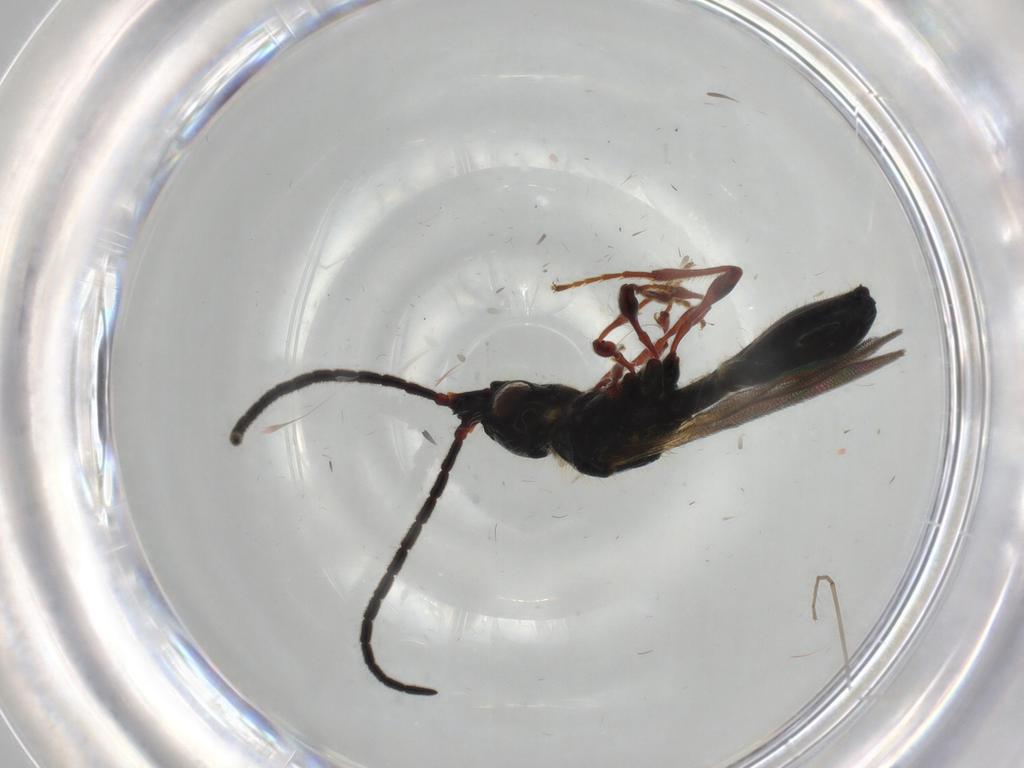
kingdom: Animalia
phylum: Arthropoda
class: Insecta
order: Hymenoptera
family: Diapriidae
